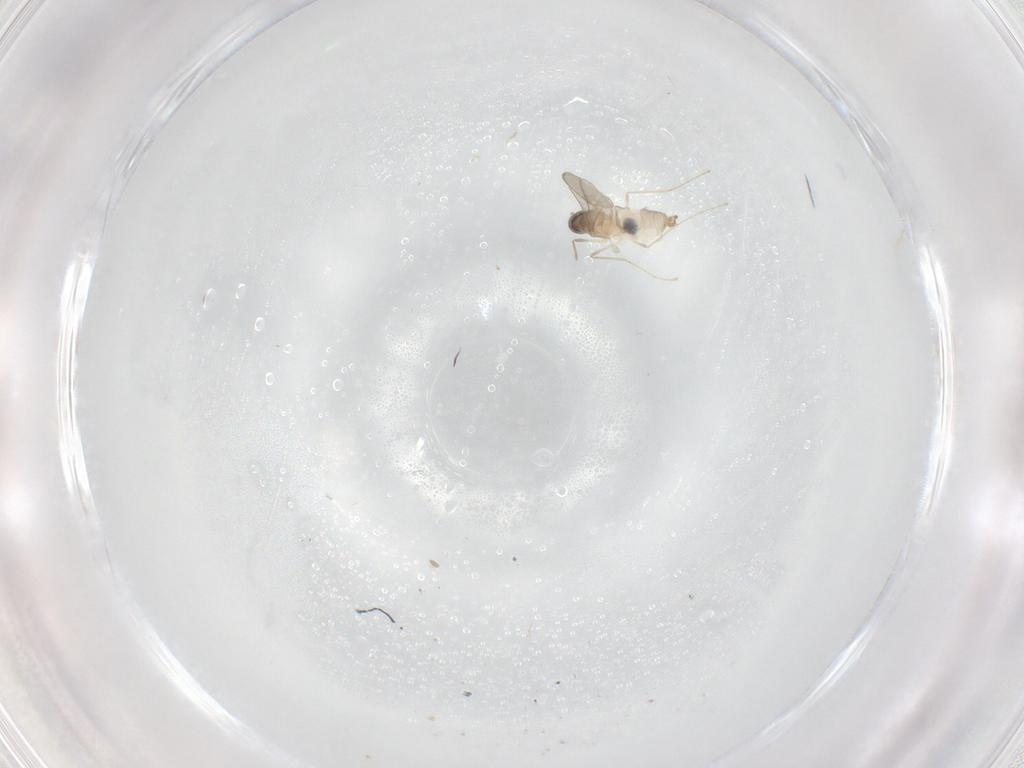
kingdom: Animalia
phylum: Arthropoda
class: Insecta
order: Diptera
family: Cecidomyiidae
